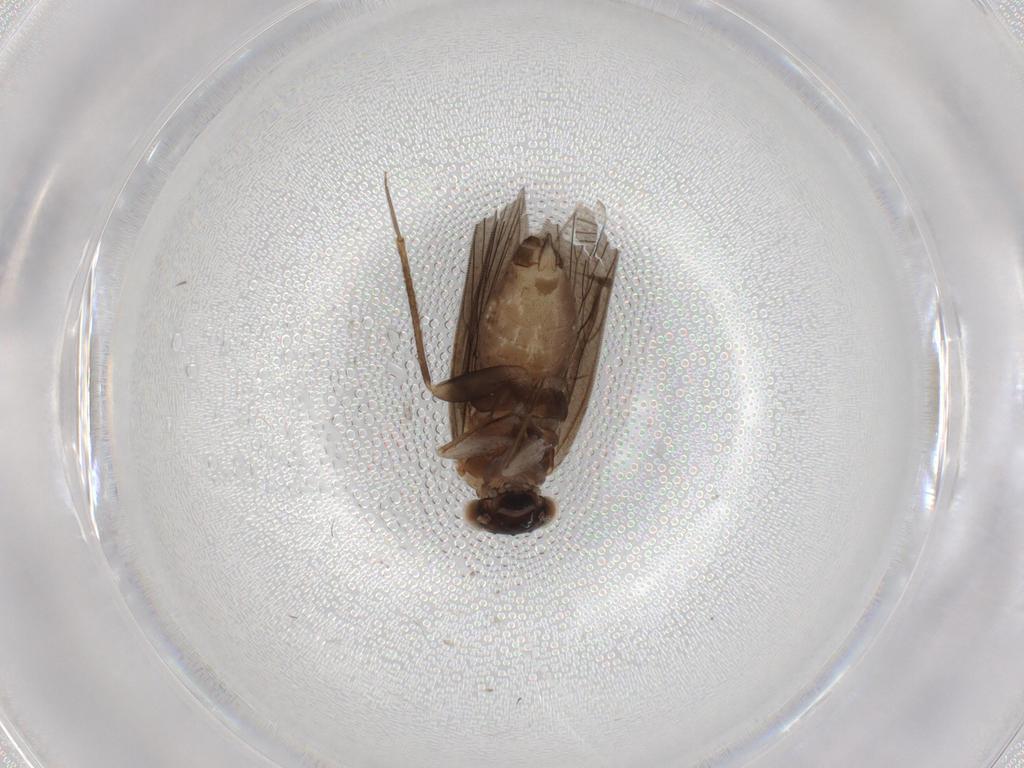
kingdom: Animalia
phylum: Arthropoda
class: Insecta
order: Psocodea
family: Lepidopsocidae
